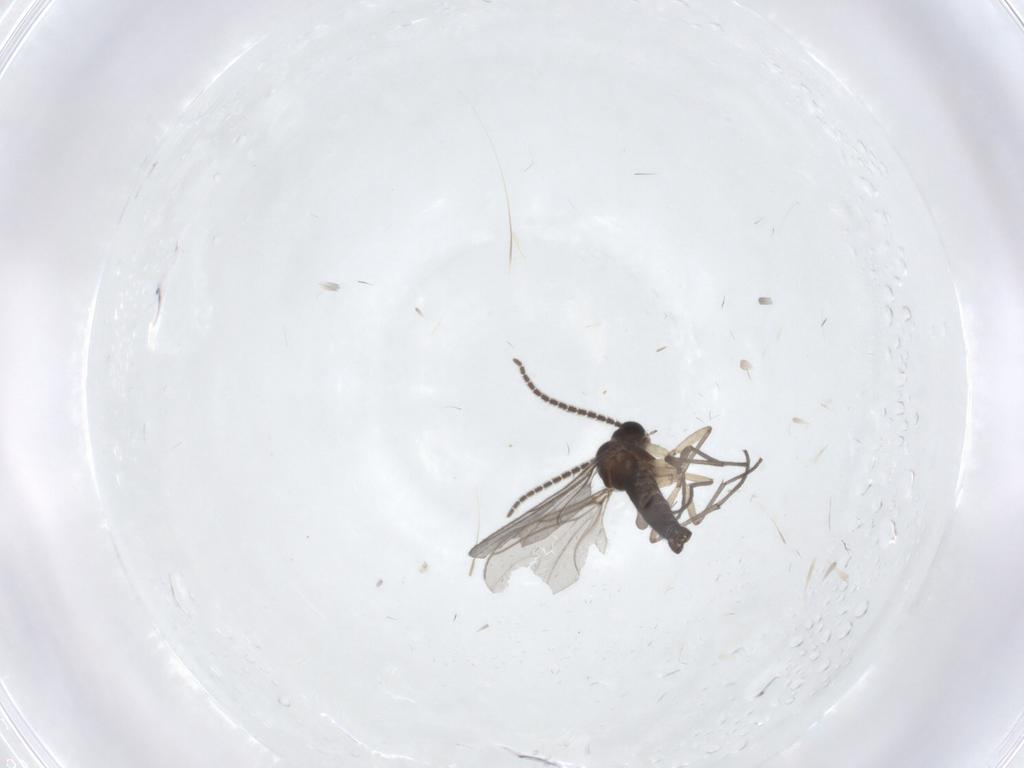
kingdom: Animalia
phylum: Arthropoda
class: Insecta
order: Diptera
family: Sciaridae
